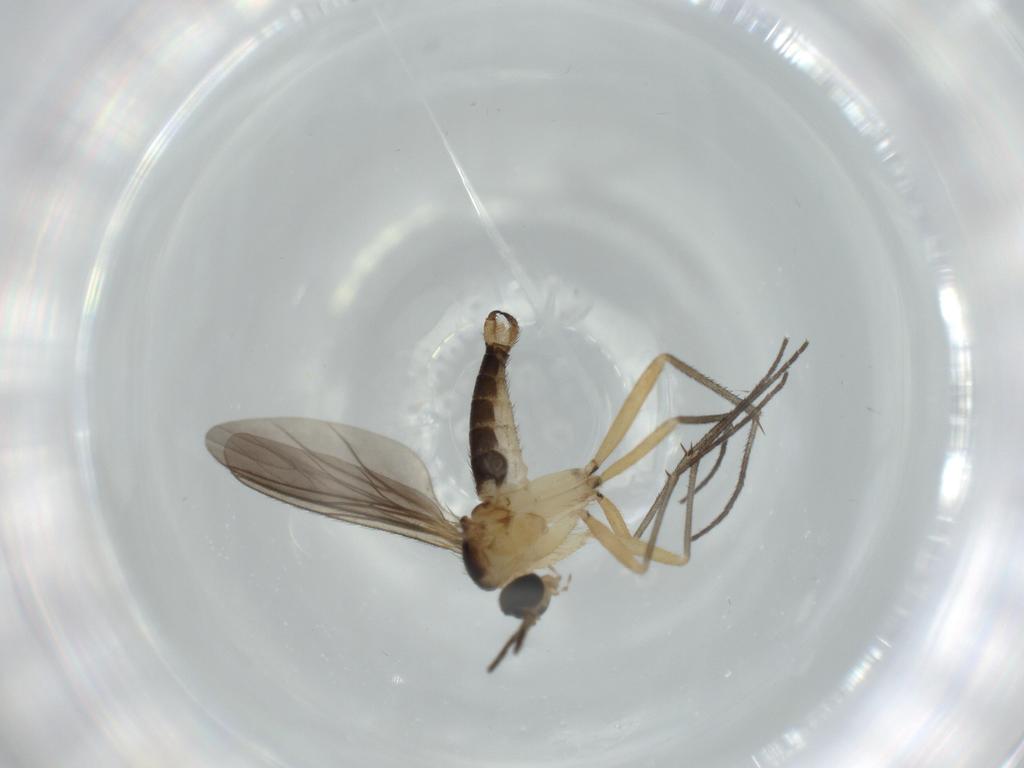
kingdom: Animalia
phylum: Arthropoda
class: Insecta
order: Diptera
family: Sciaridae
